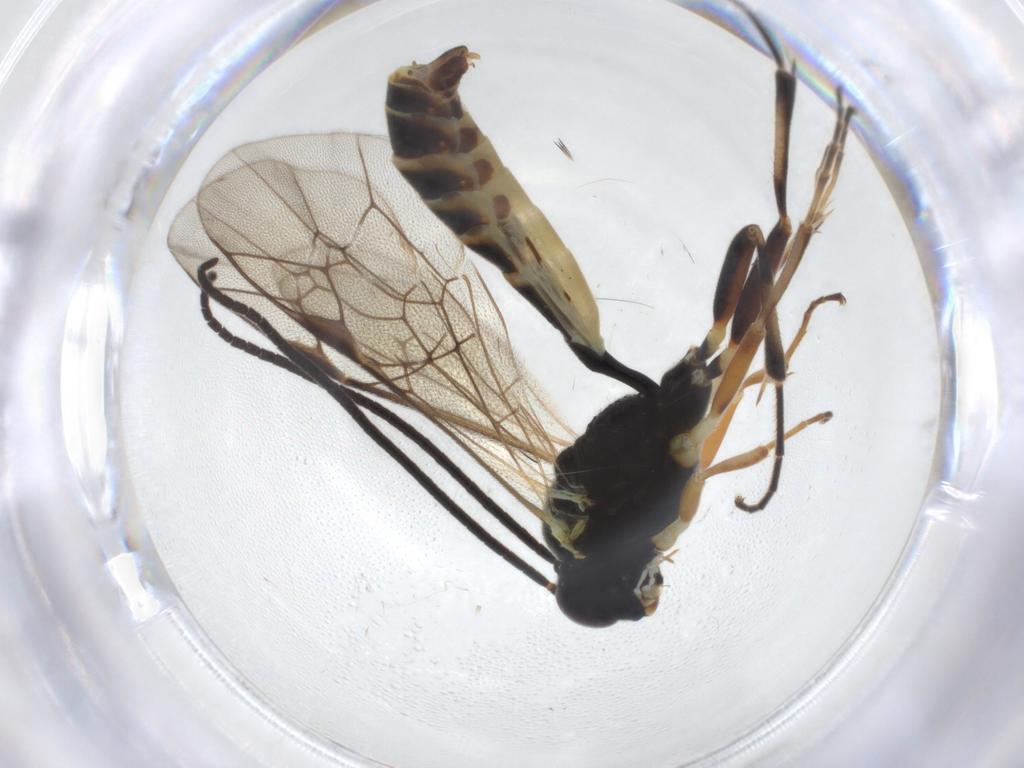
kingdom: Animalia
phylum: Arthropoda
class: Insecta
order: Hymenoptera
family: Ichneumonidae
